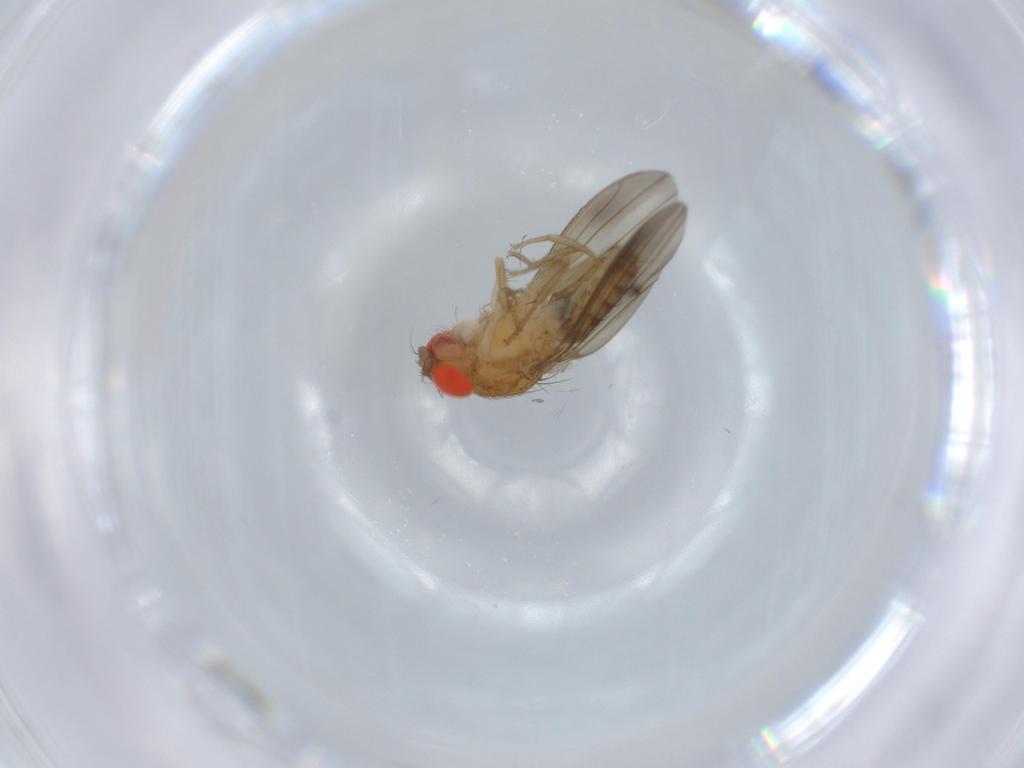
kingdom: Animalia
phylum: Arthropoda
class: Insecta
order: Diptera
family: Drosophilidae
